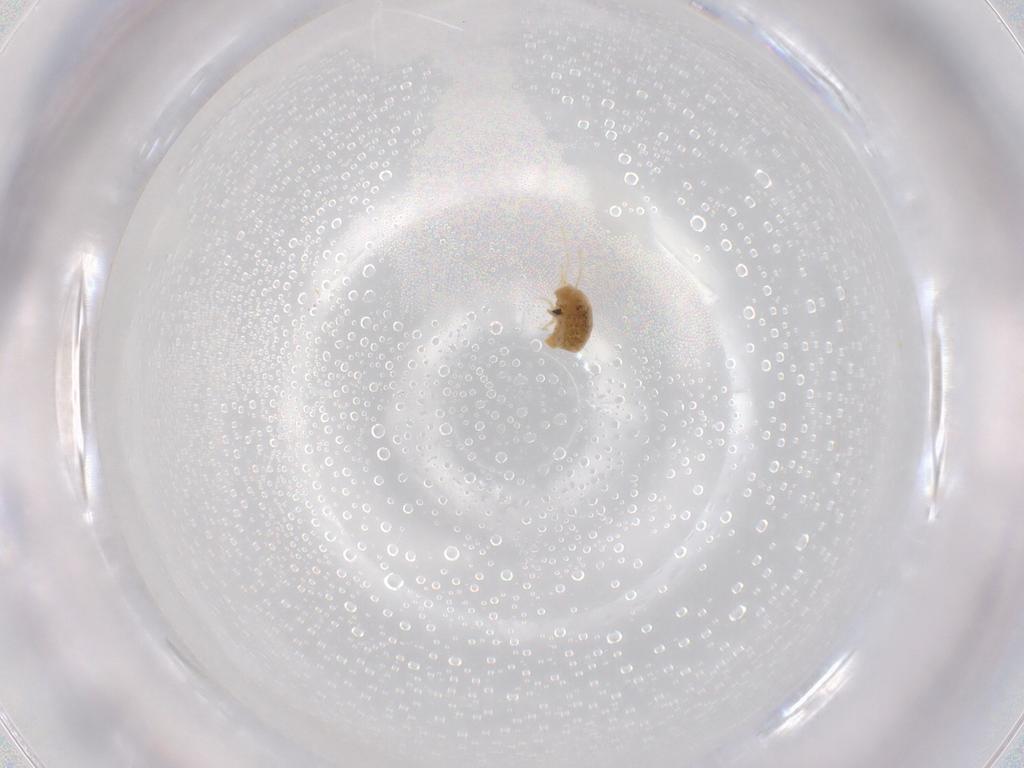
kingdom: Animalia
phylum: Arthropoda
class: Arachnida
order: Trombidiformes
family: Tetranychidae
